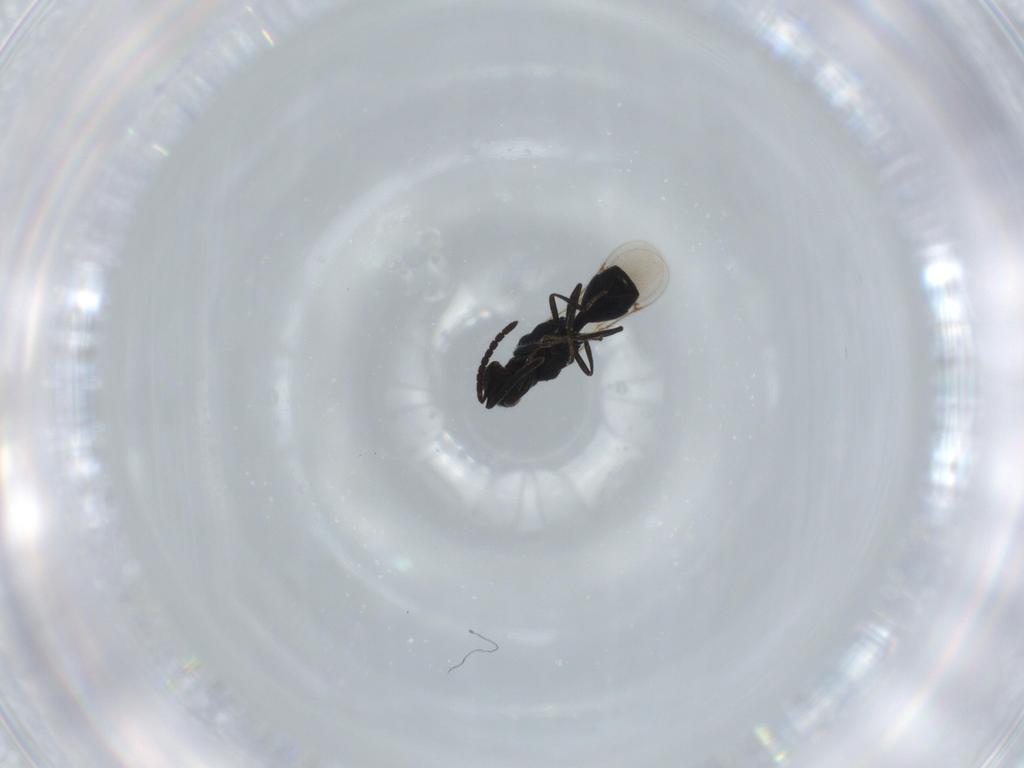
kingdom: Animalia
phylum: Arthropoda
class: Insecta
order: Hymenoptera
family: Spalangiidae
